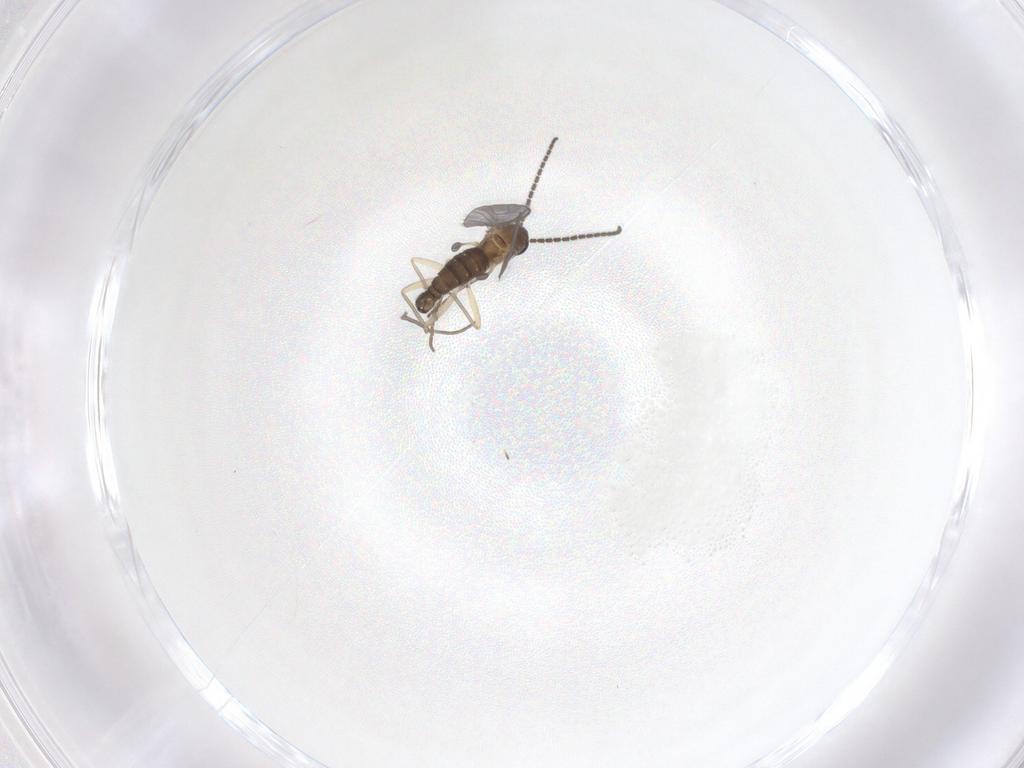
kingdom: Animalia
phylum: Arthropoda
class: Insecta
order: Diptera
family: Sciaridae
